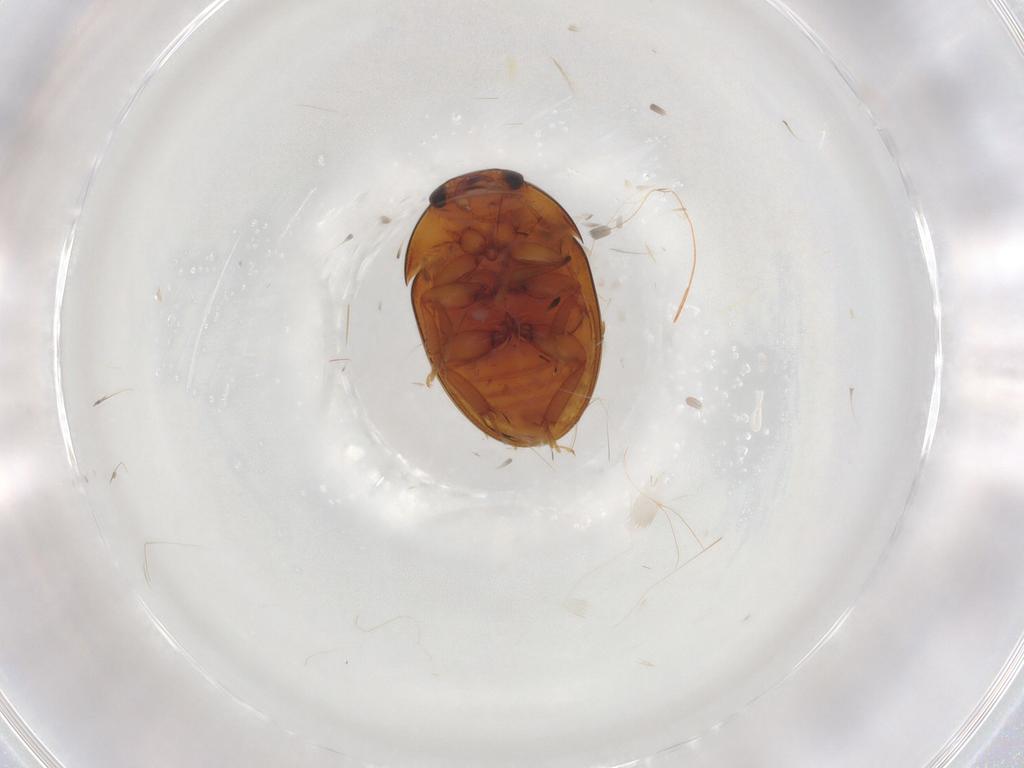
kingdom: Animalia
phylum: Arthropoda
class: Insecta
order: Coleoptera
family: Phalacridae
